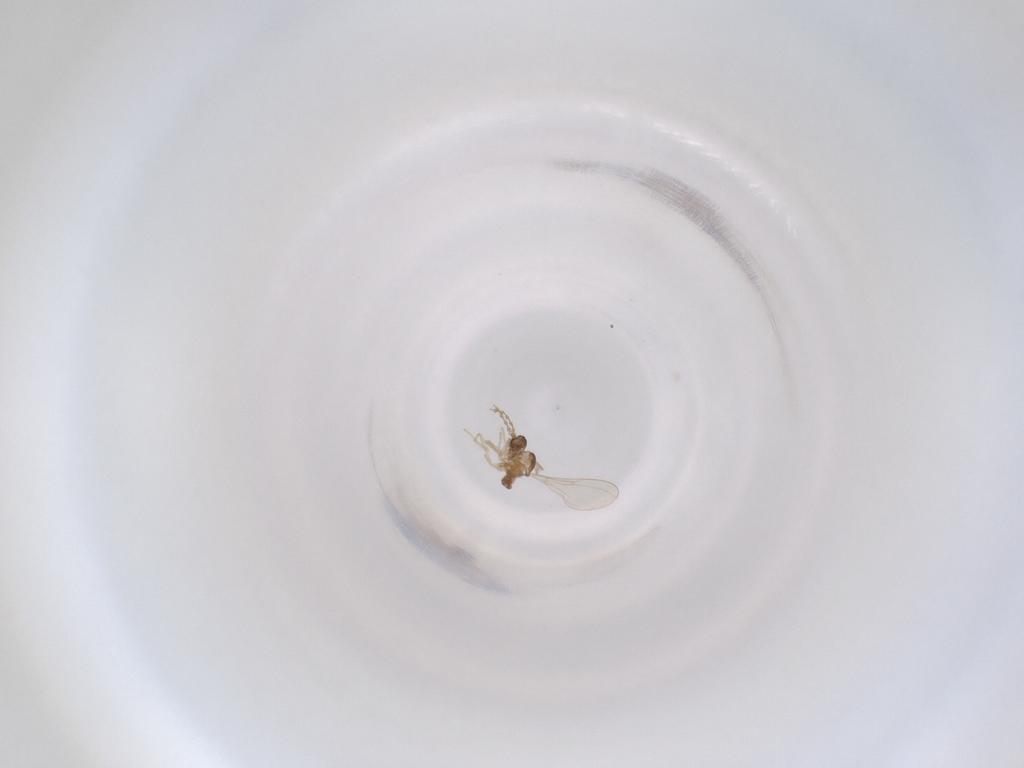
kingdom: Animalia
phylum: Arthropoda
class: Insecta
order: Diptera
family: Cecidomyiidae
